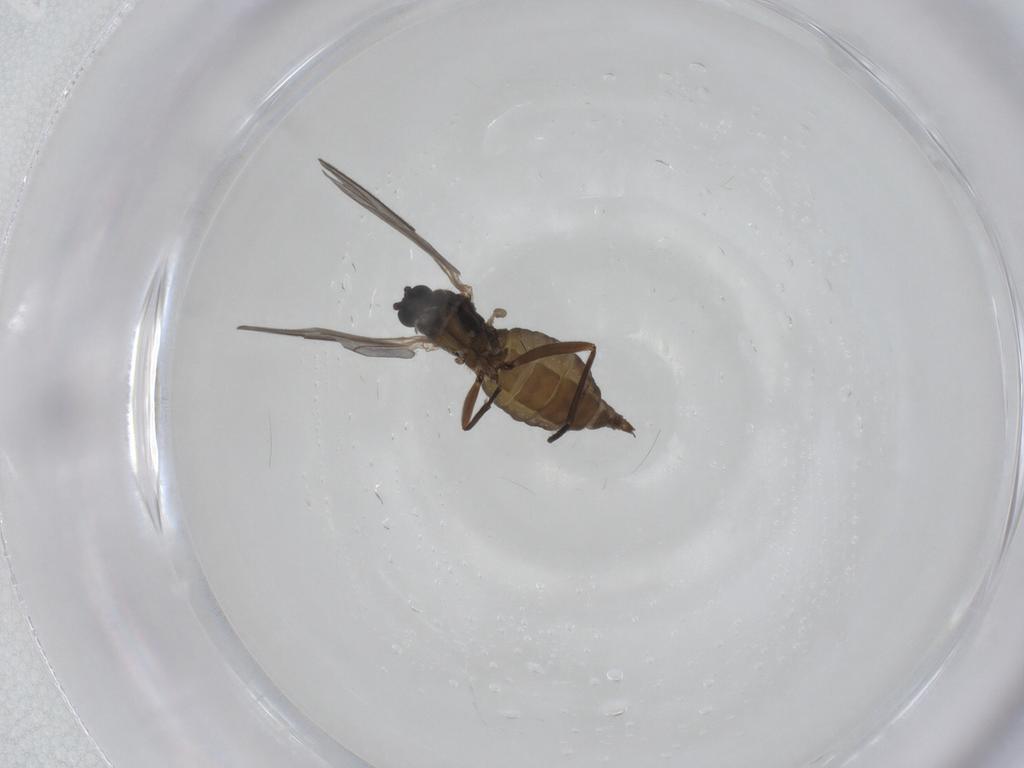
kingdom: Animalia
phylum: Arthropoda
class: Insecta
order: Diptera
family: Sciaridae
